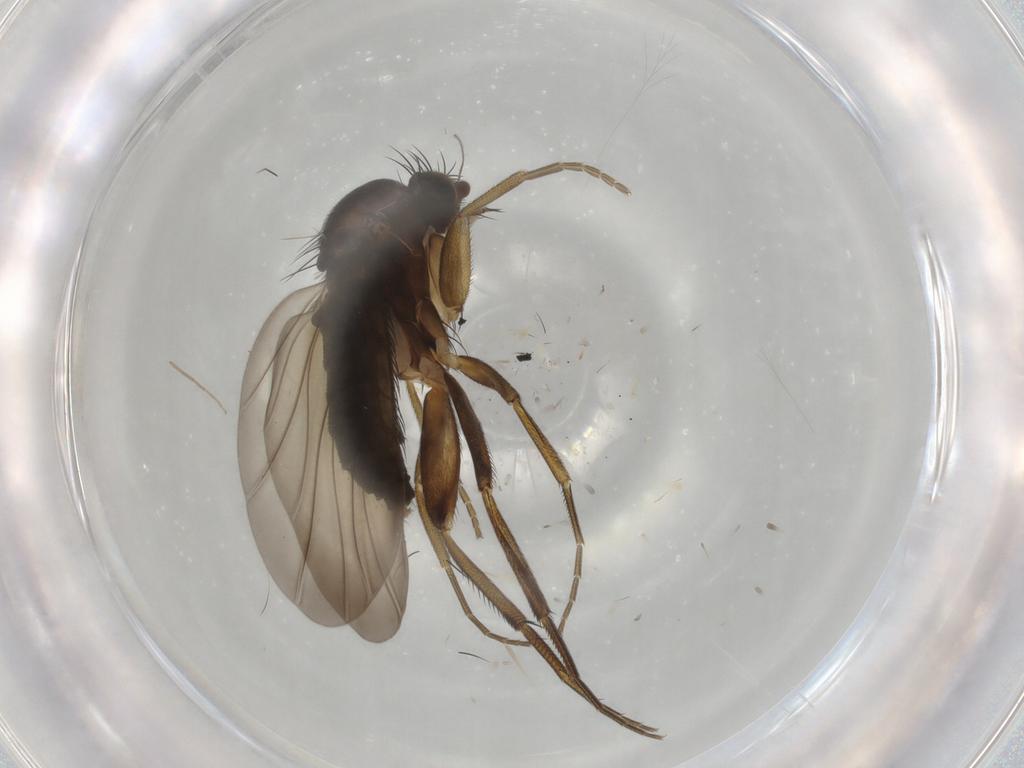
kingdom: Animalia
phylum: Arthropoda
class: Insecta
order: Diptera
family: Phoridae
